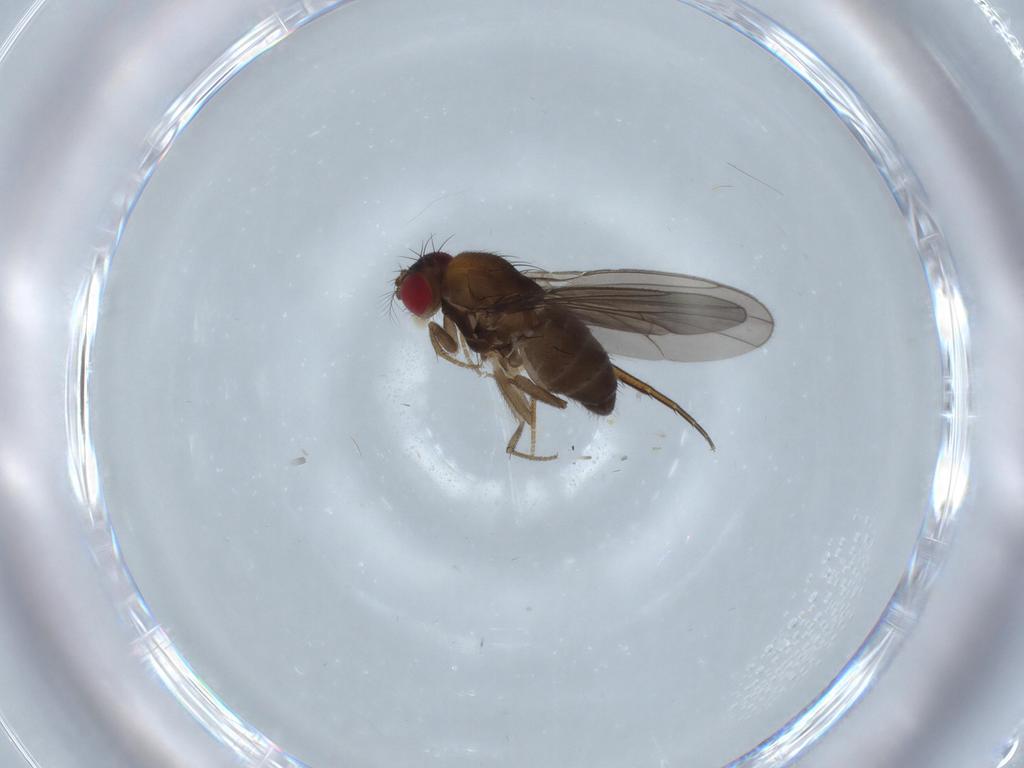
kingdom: Animalia
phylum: Arthropoda
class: Insecta
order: Diptera
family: Drosophilidae
